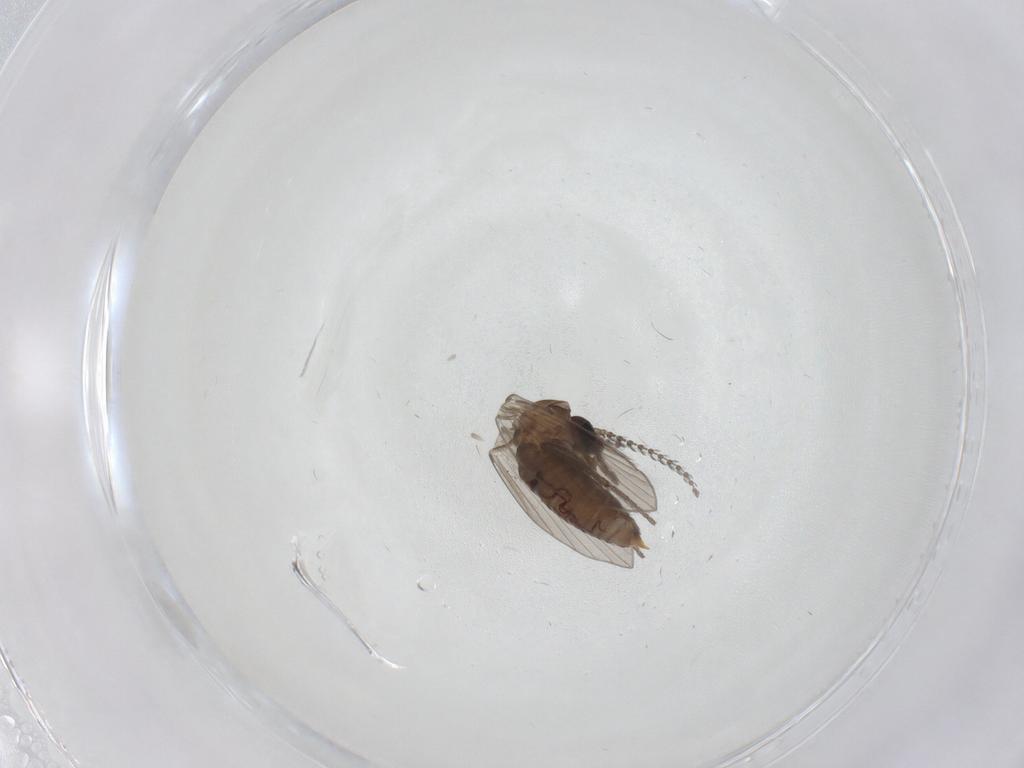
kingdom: Animalia
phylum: Arthropoda
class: Insecta
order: Diptera
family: Psychodidae
